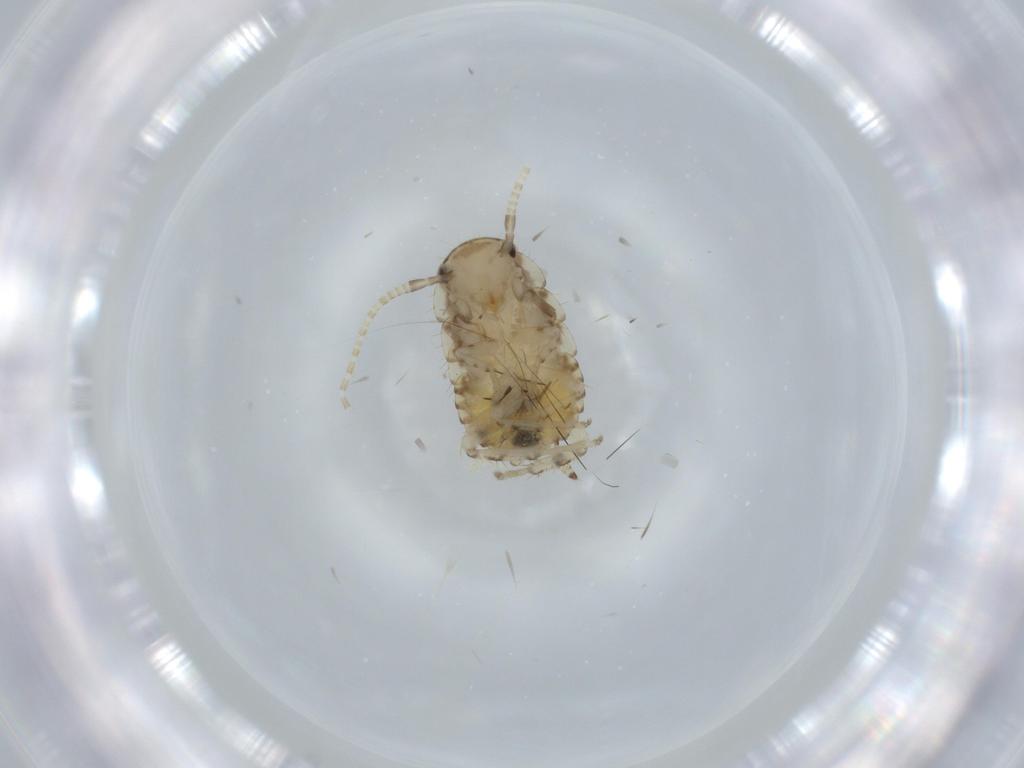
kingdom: Animalia
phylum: Arthropoda
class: Insecta
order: Blattodea
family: Ectobiidae
